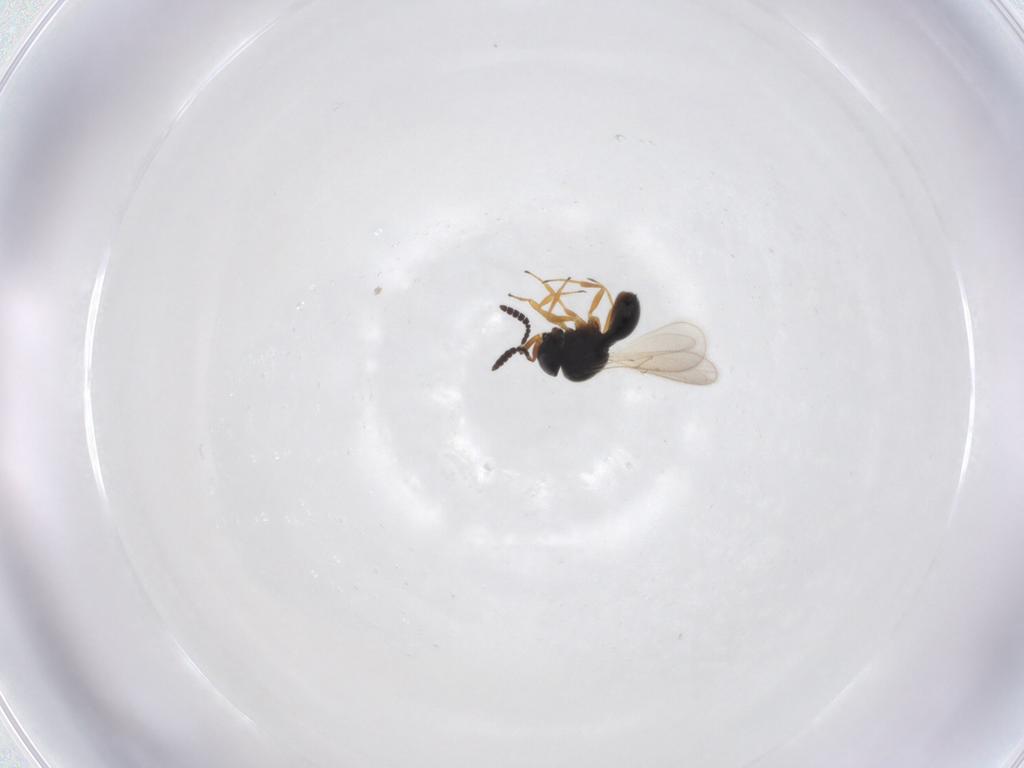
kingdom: Animalia
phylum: Arthropoda
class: Insecta
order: Hymenoptera
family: Scelionidae
